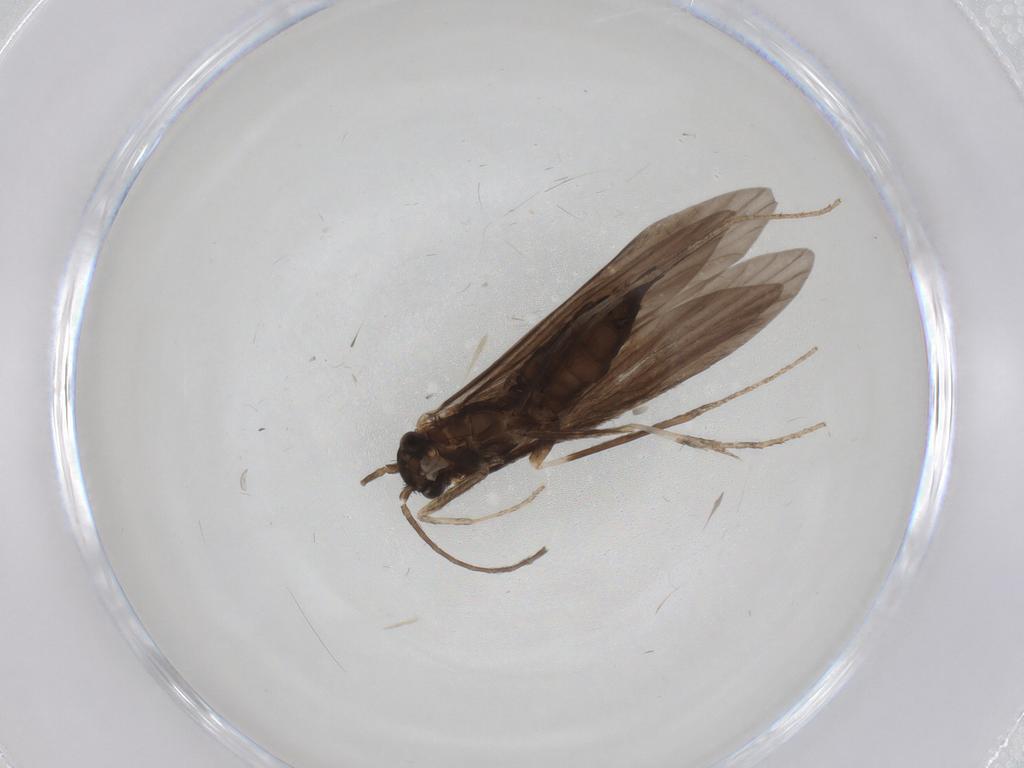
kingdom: Animalia
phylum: Arthropoda
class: Insecta
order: Trichoptera
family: Xiphocentronidae
